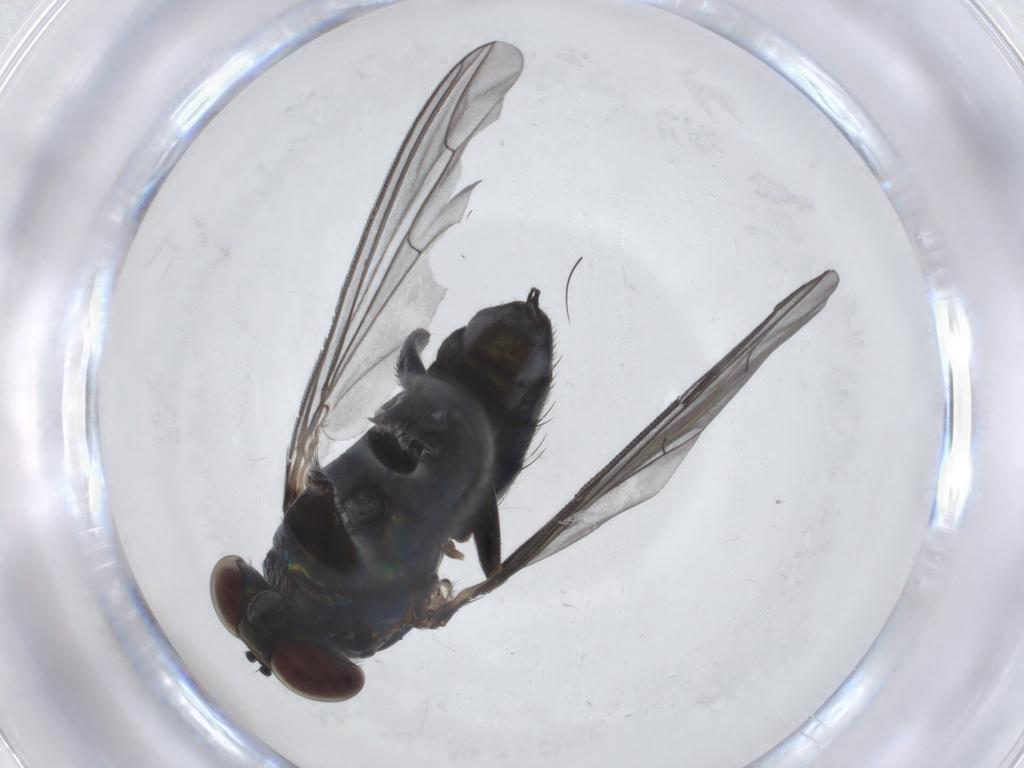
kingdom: Animalia
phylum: Arthropoda
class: Insecta
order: Diptera
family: Dolichopodidae
